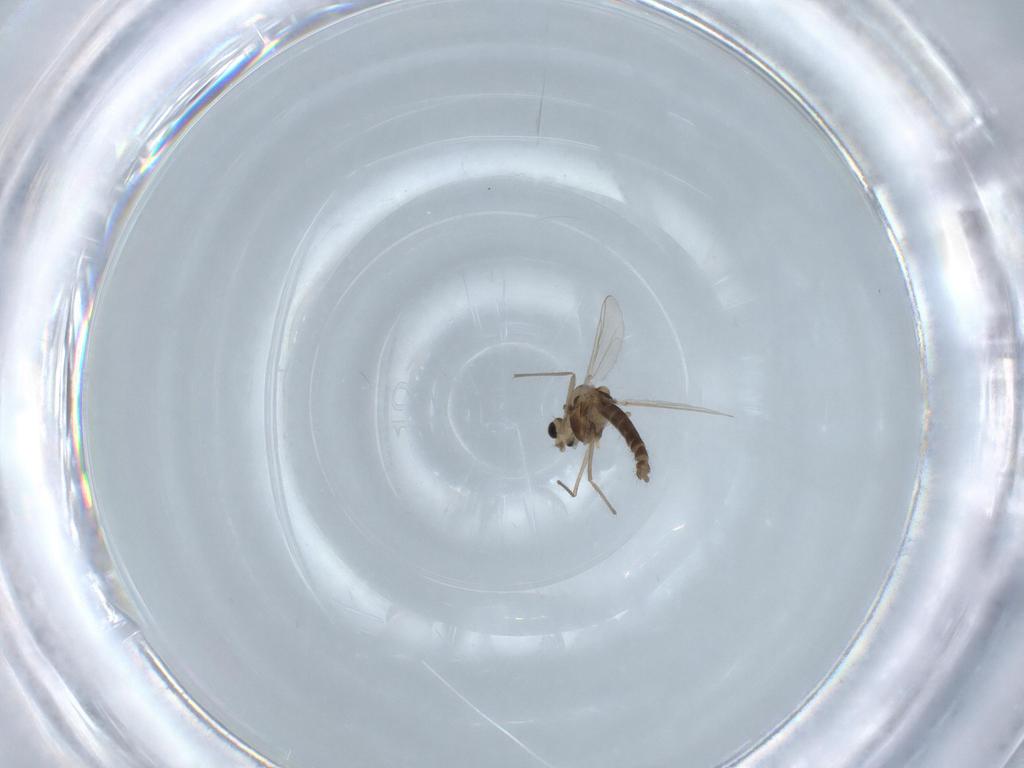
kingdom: Animalia
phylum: Arthropoda
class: Insecta
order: Diptera
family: Chironomidae
